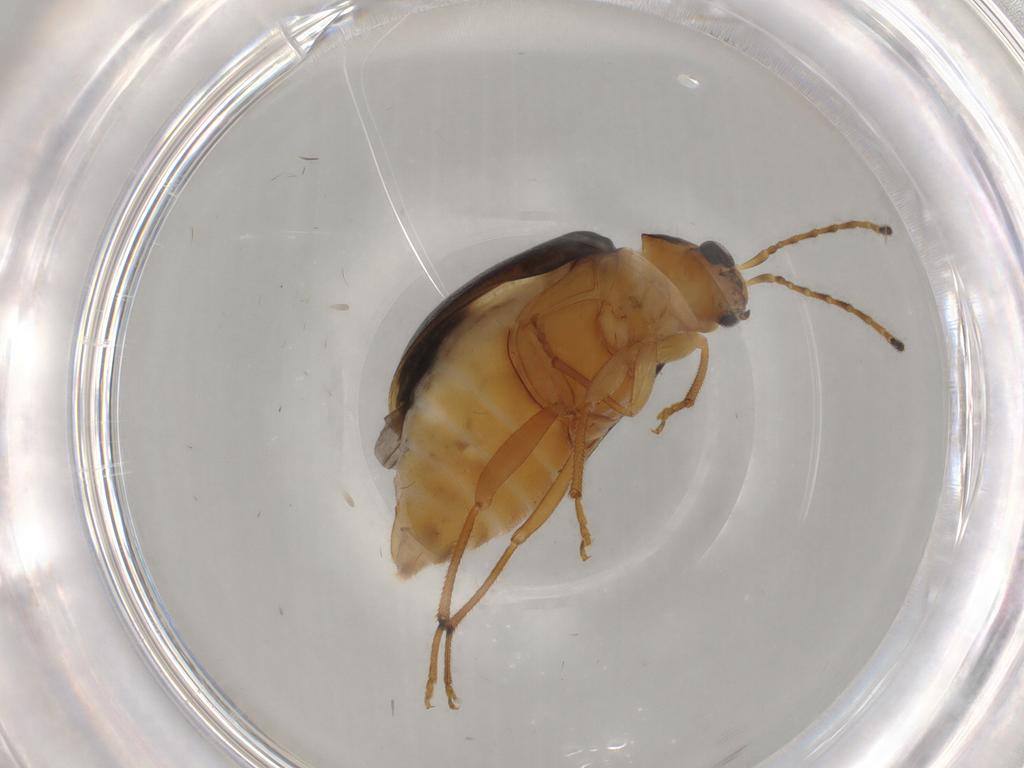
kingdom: Animalia
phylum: Arthropoda
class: Insecta
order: Coleoptera
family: Chrysomelidae
